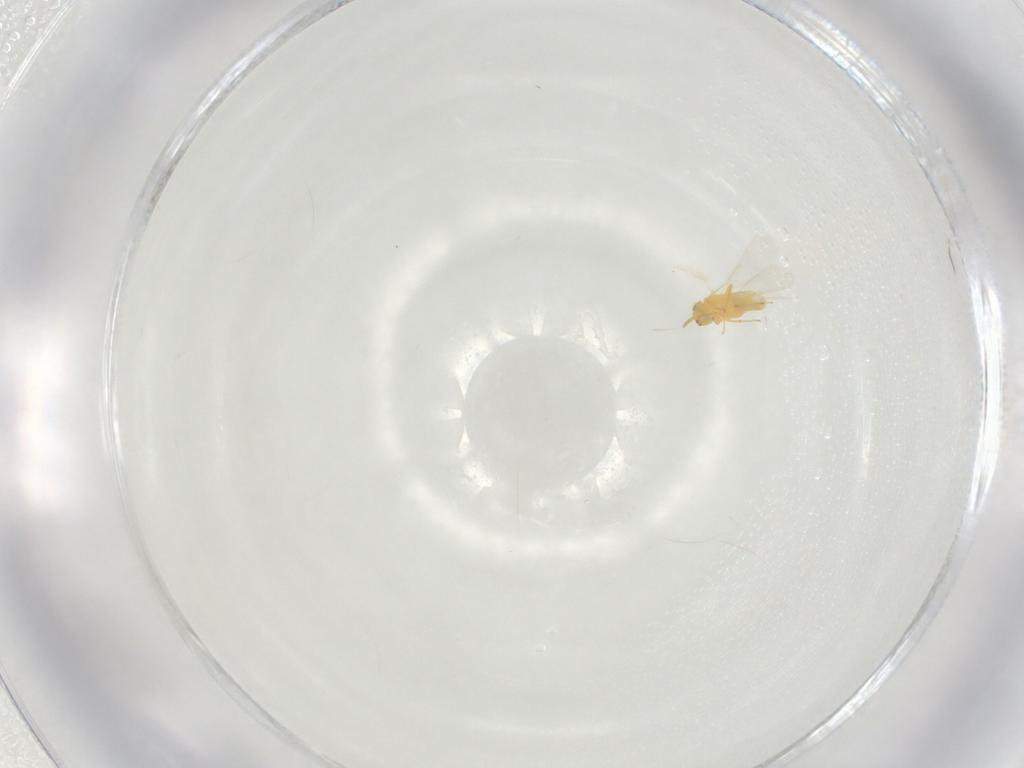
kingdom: Animalia
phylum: Arthropoda
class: Insecta
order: Hymenoptera
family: Aphelinidae
